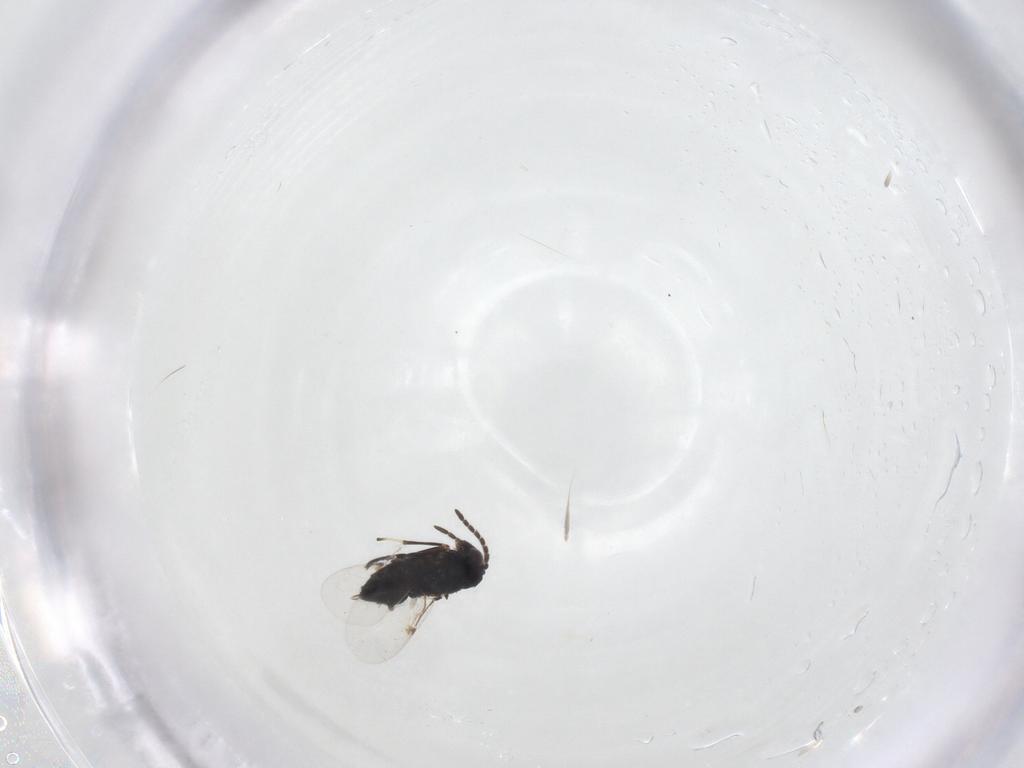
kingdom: Animalia
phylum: Arthropoda
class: Insecta
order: Hymenoptera
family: Encyrtidae
